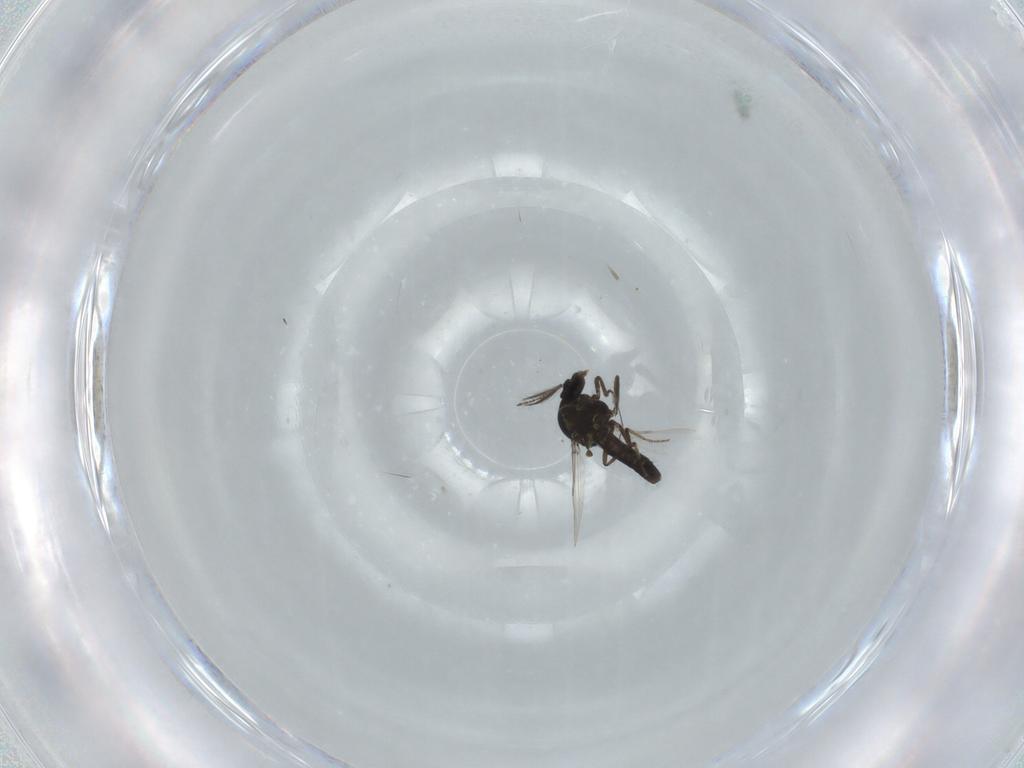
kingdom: Animalia
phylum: Arthropoda
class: Insecta
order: Diptera
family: Ceratopogonidae
